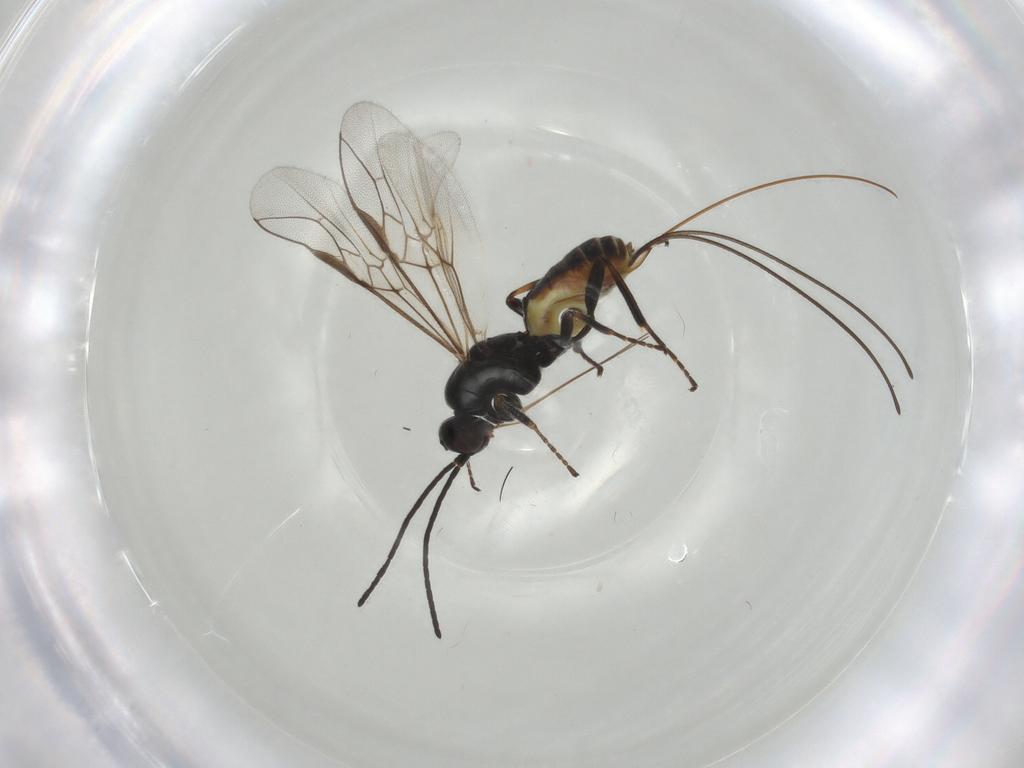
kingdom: Animalia
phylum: Arthropoda
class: Insecta
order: Hymenoptera
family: Braconidae
